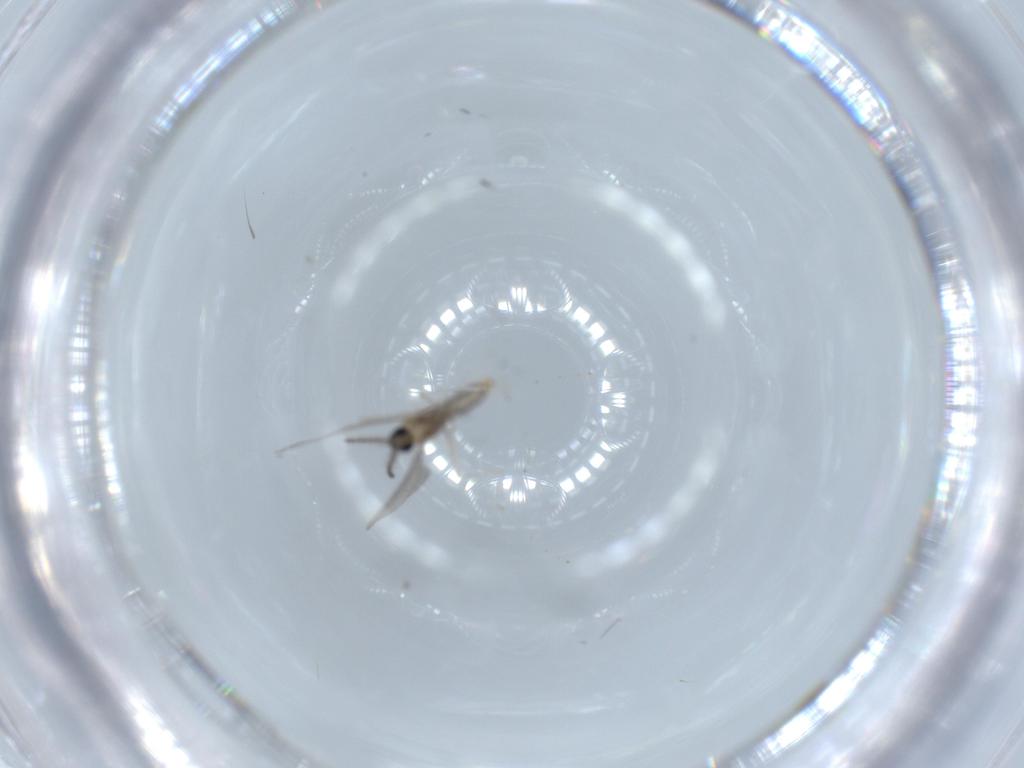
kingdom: Animalia
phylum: Arthropoda
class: Insecta
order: Diptera
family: Cecidomyiidae
